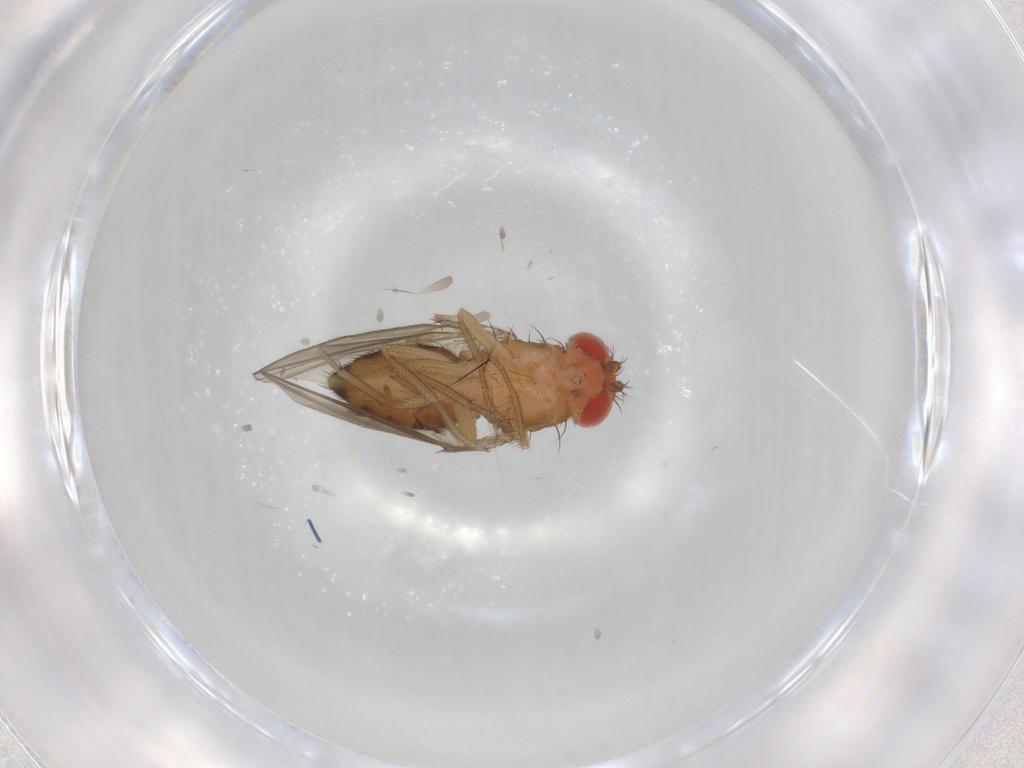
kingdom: Animalia
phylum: Arthropoda
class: Insecta
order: Diptera
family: Drosophilidae
